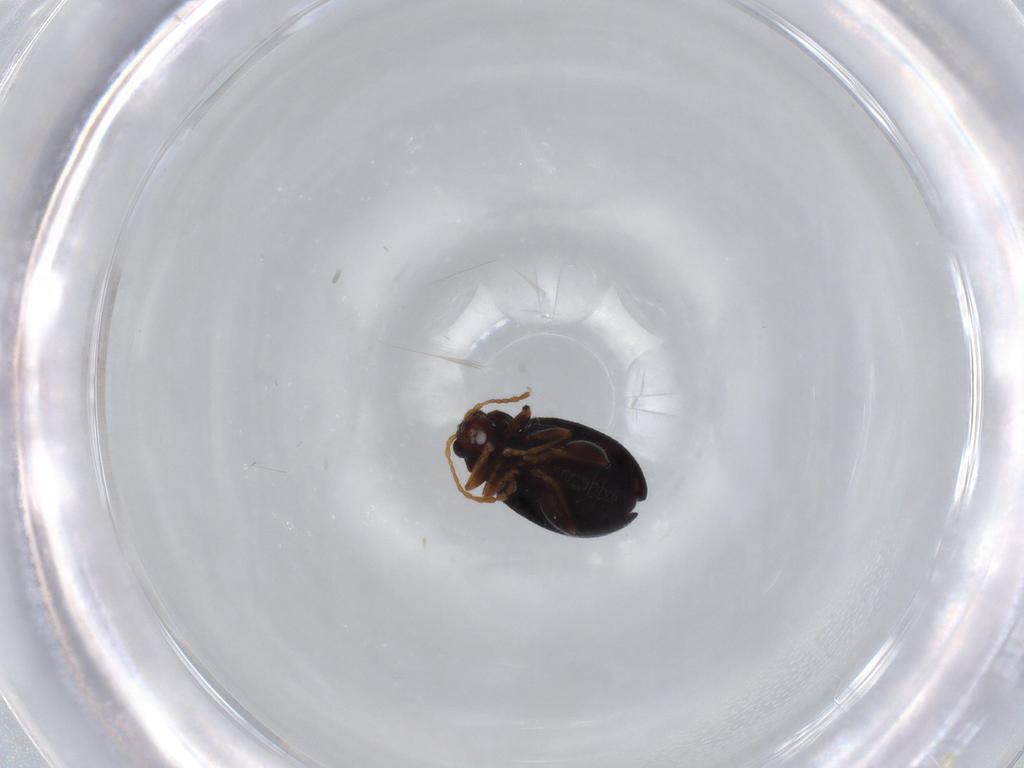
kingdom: Animalia
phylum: Arthropoda
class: Insecta
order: Coleoptera
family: Chrysomelidae
